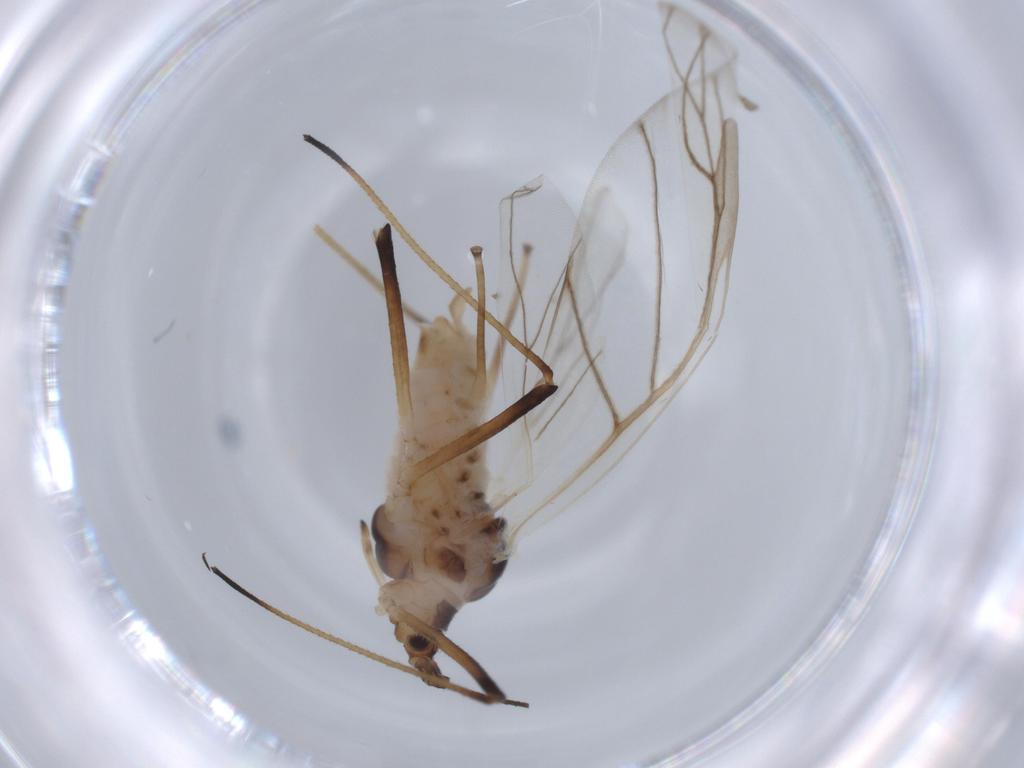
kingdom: Animalia
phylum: Arthropoda
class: Insecta
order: Hemiptera
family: Aphididae
